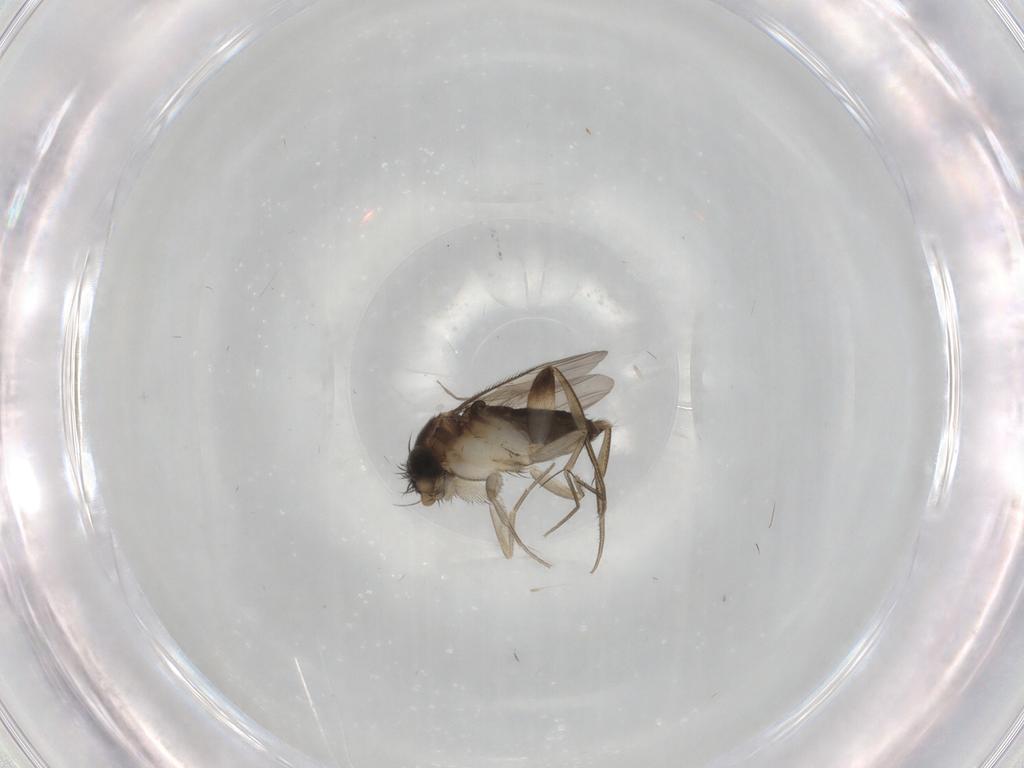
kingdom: Animalia
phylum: Arthropoda
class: Insecta
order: Diptera
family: Phoridae
